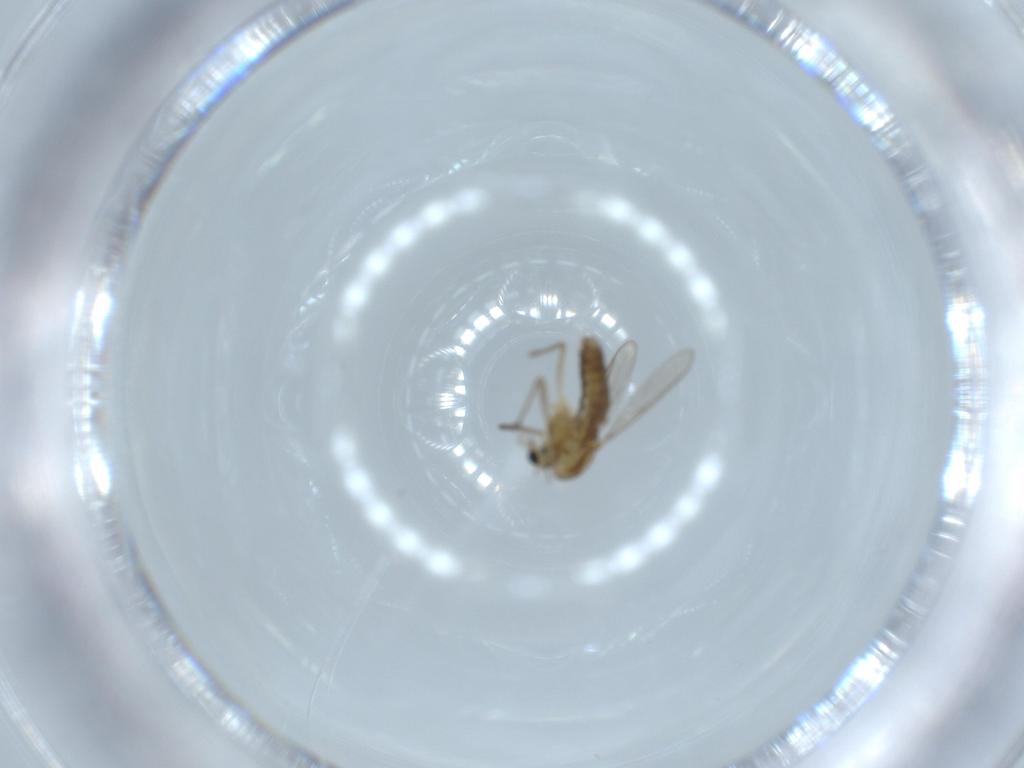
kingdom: Animalia
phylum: Arthropoda
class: Insecta
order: Diptera
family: Chironomidae
